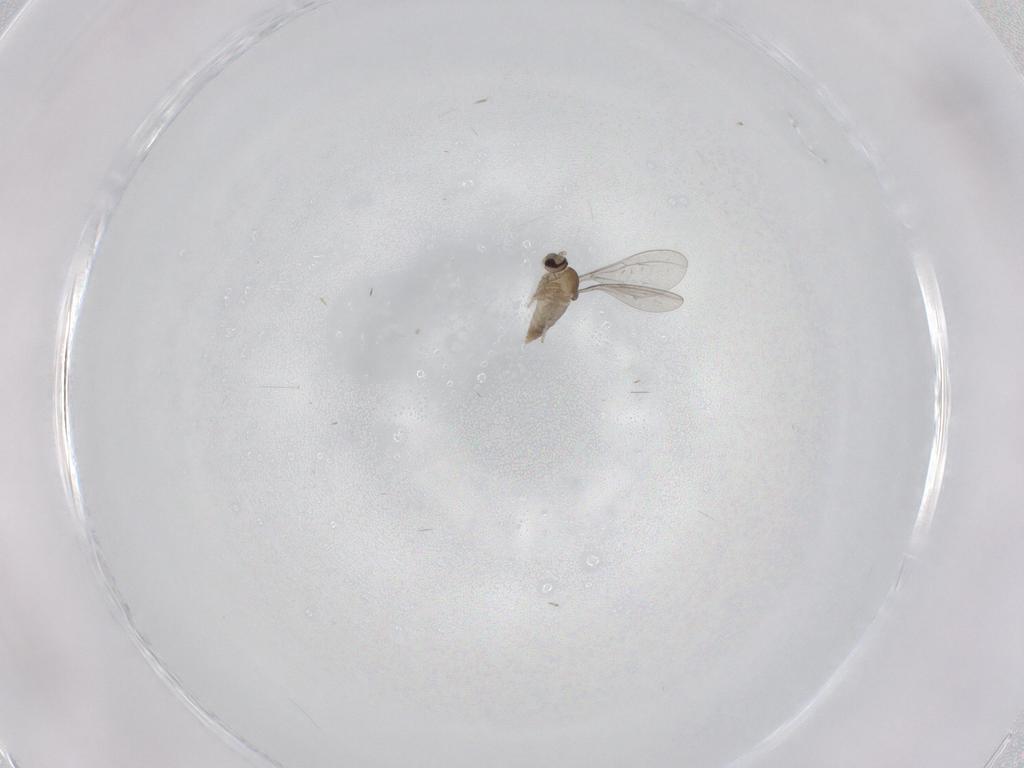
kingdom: Animalia
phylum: Arthropoda
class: Insecta
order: Diptera
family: Cecidomyiidae
